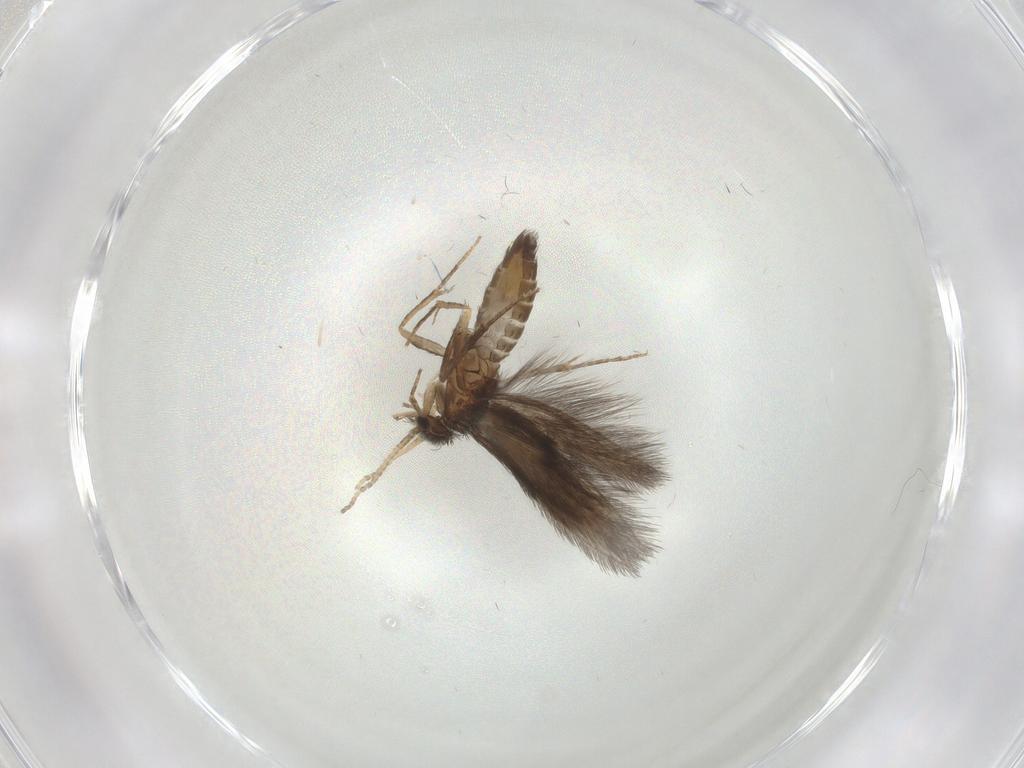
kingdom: Animalia
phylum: Arthropoda
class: Insecta
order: Trichoptera
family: Hydroptilidae
